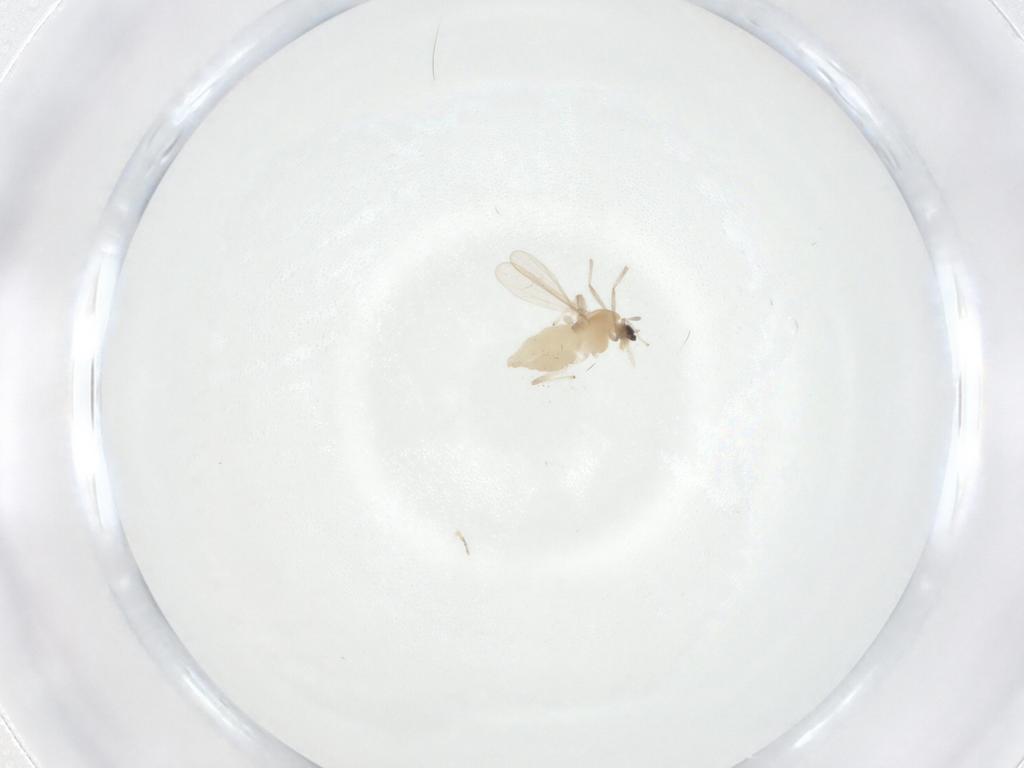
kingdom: Animalia
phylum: Arthropoda
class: Insecta
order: Diptera
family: Chironomidae
